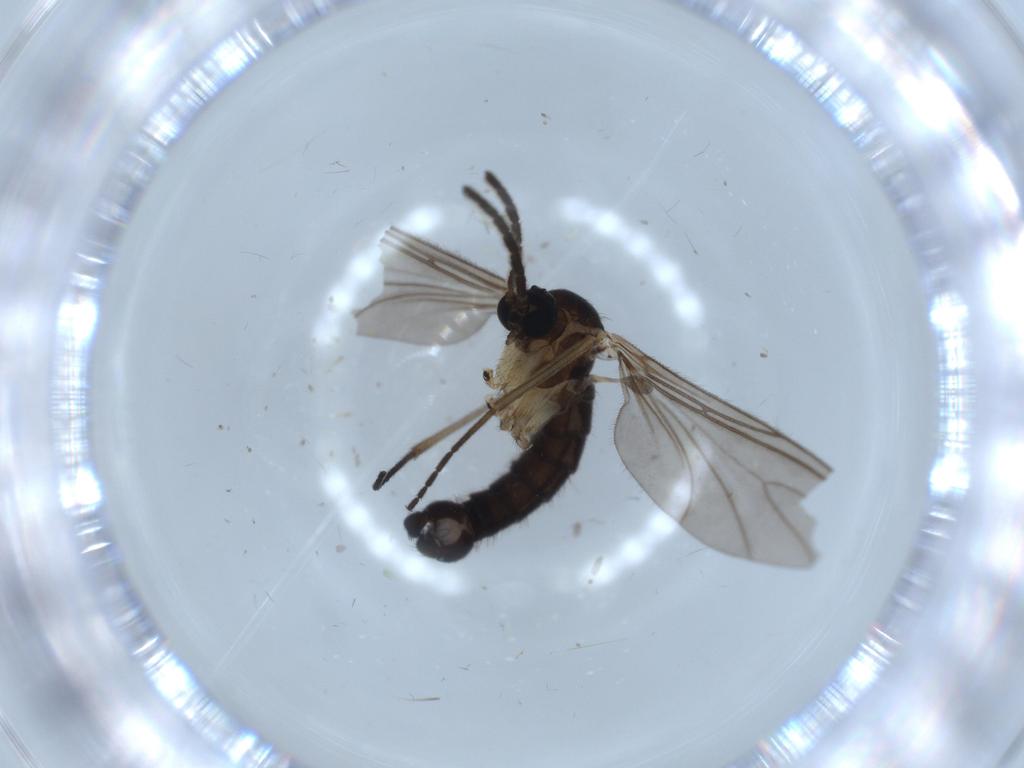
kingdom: Animalia
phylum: Arthropoda
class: Insecta
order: Diptera
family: Sciaridae
